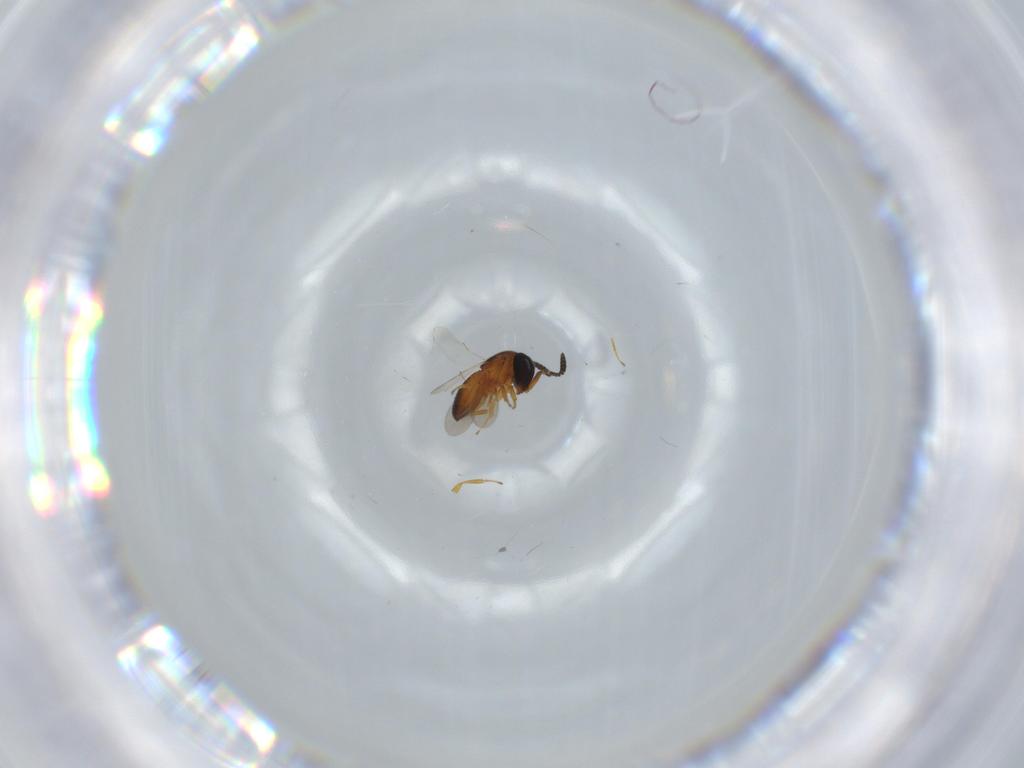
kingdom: Animalia
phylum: Arthropoda
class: Insecta
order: Hymenoptera
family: Scelionidae
